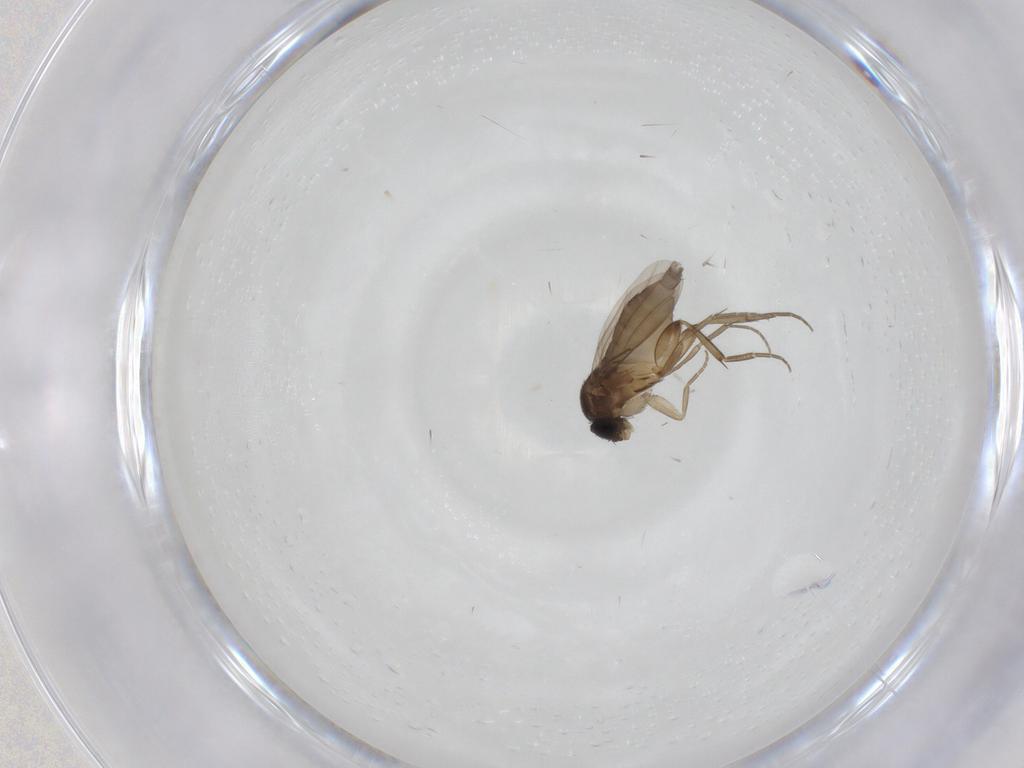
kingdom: Animalia
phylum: Arthropoda
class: Insecta
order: Diptera
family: Phoridae
